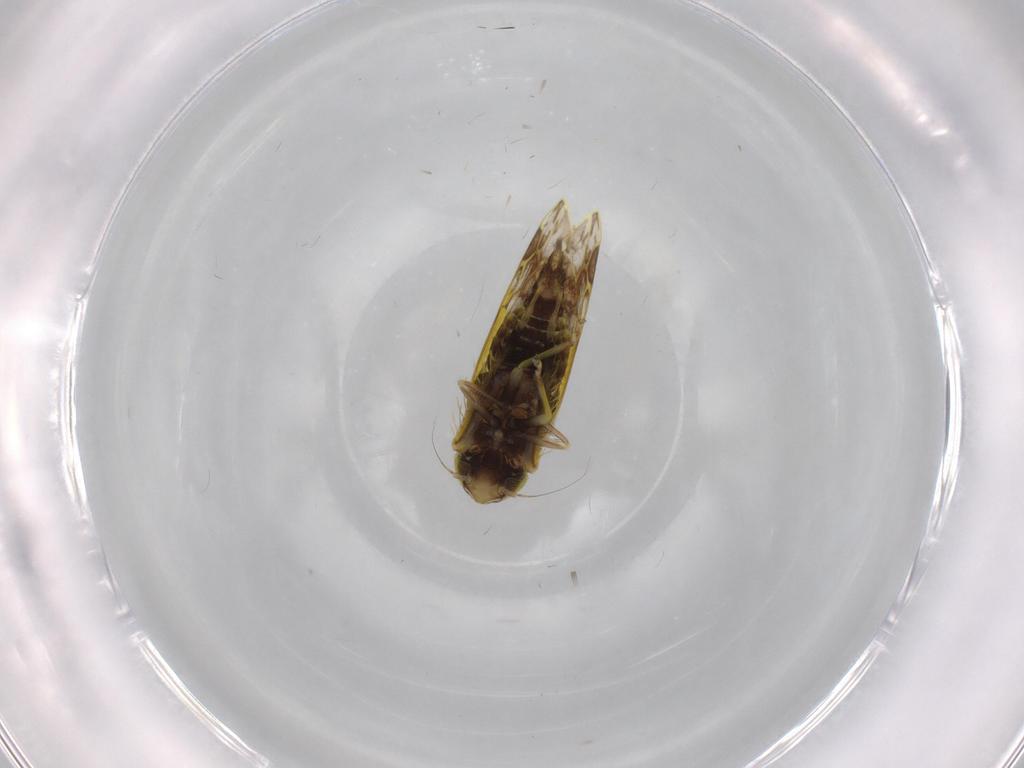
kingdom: Animalia
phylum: Arthropoda
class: Insecta
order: Hemiptera
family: Cicadellidae
